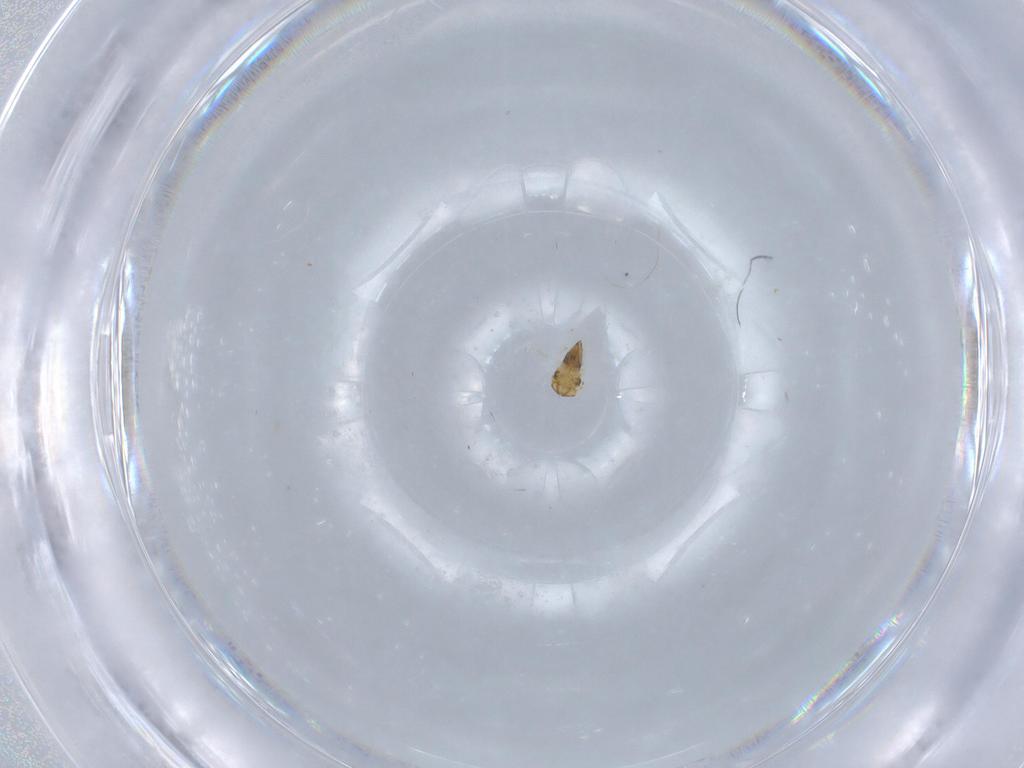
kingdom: Animalia
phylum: Arthropoda
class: Insecta
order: Hymenoptera
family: Aphelinidae
